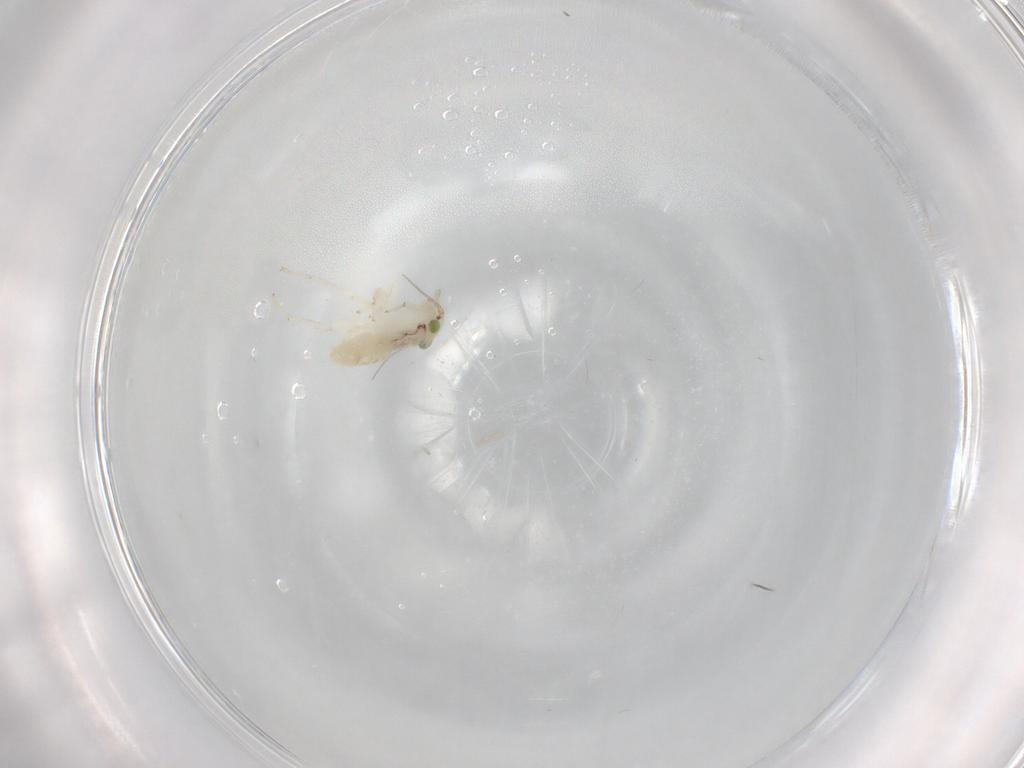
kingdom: Animalia
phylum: Arthropoda
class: Insecta
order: Psocodea
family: Lepidopsocidae
